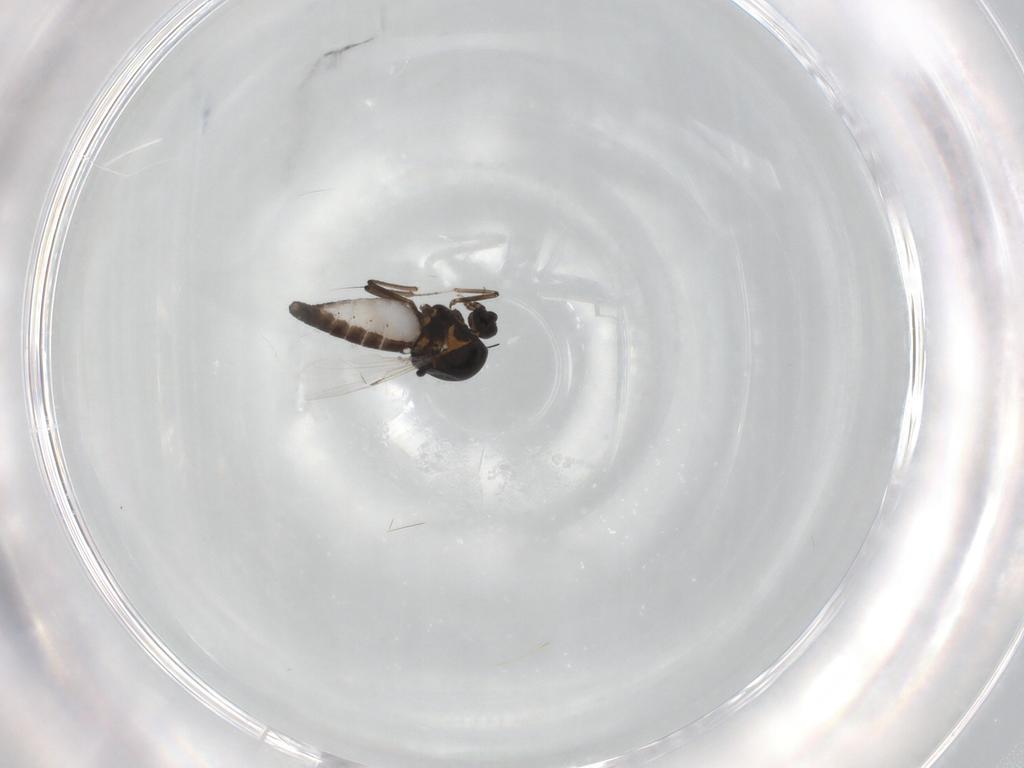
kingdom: Animalia
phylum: Arthropoda
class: Insecta
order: Diptera
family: Ceratopogonidae
